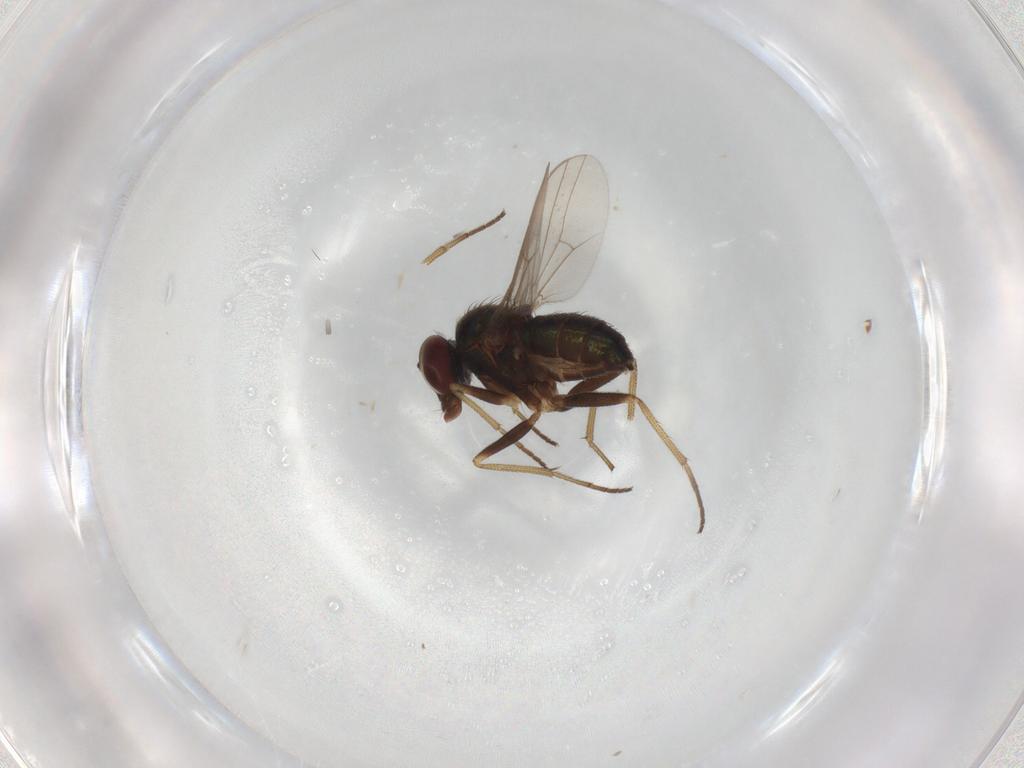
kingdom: Animalia
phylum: Arthropoda
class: Insecta
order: Diptera
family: Dolichopodidae
